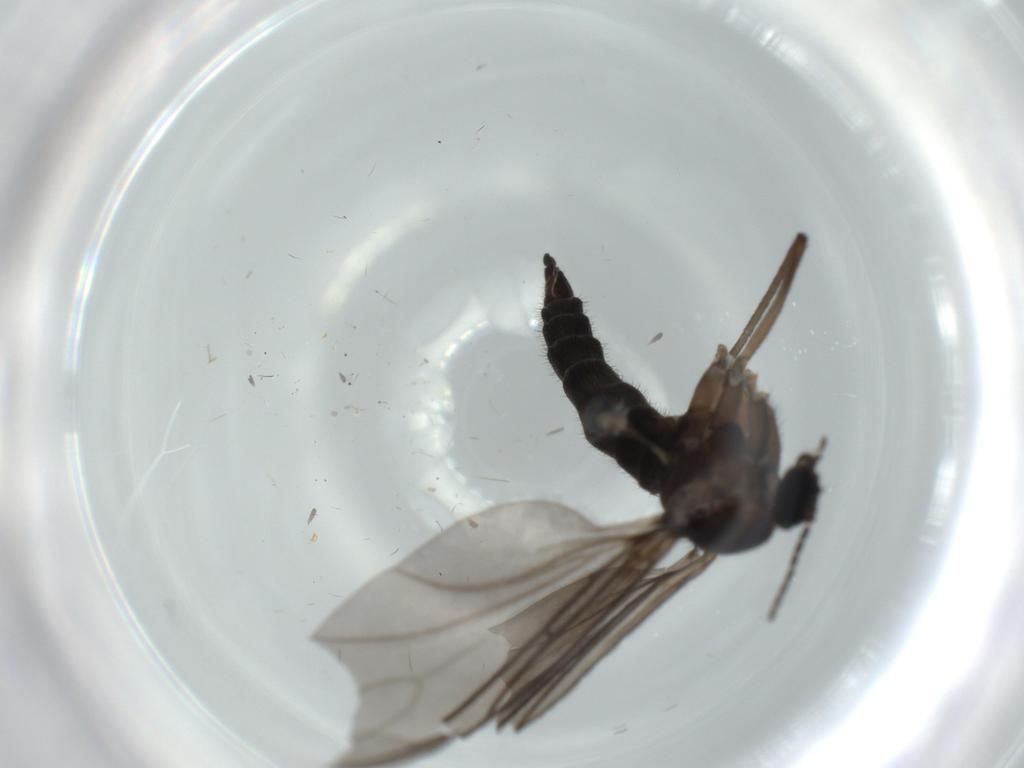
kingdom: Animalia
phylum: Arthropoda
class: Insecta
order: Diptera
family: Sciaridae
